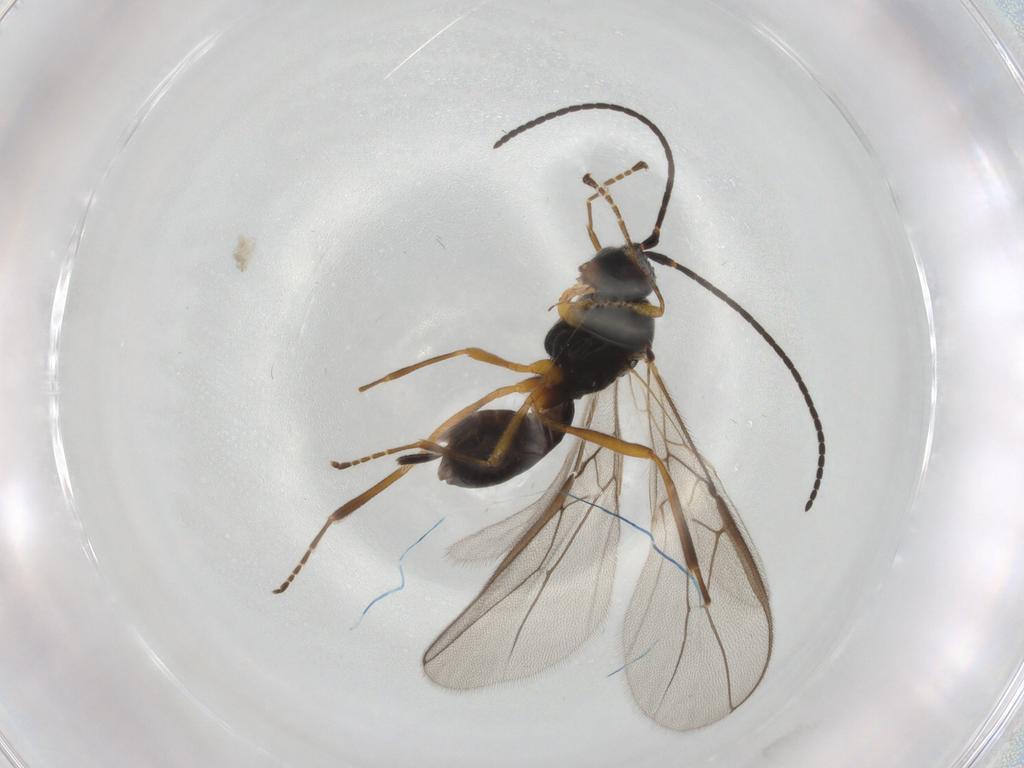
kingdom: Animalia
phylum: Arthropoda
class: Insecta
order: Hymenoptera
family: Braconidae
